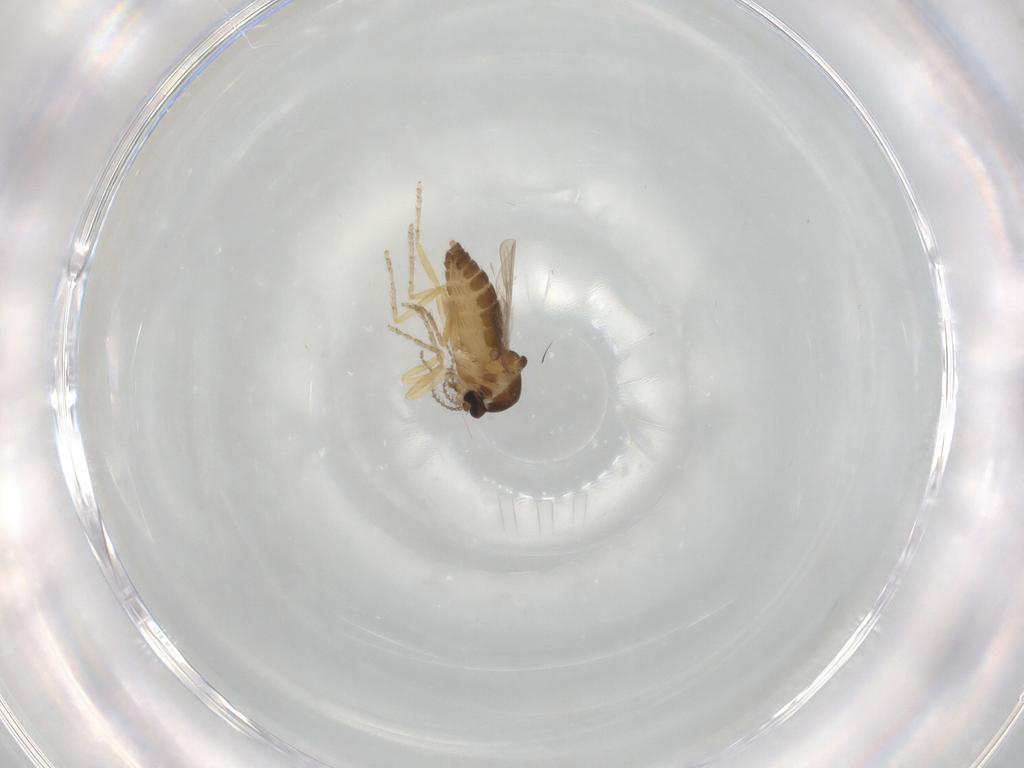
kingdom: Animalia
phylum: Arthropoda
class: Insecta
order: Diptera
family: Ceratopogonidae
